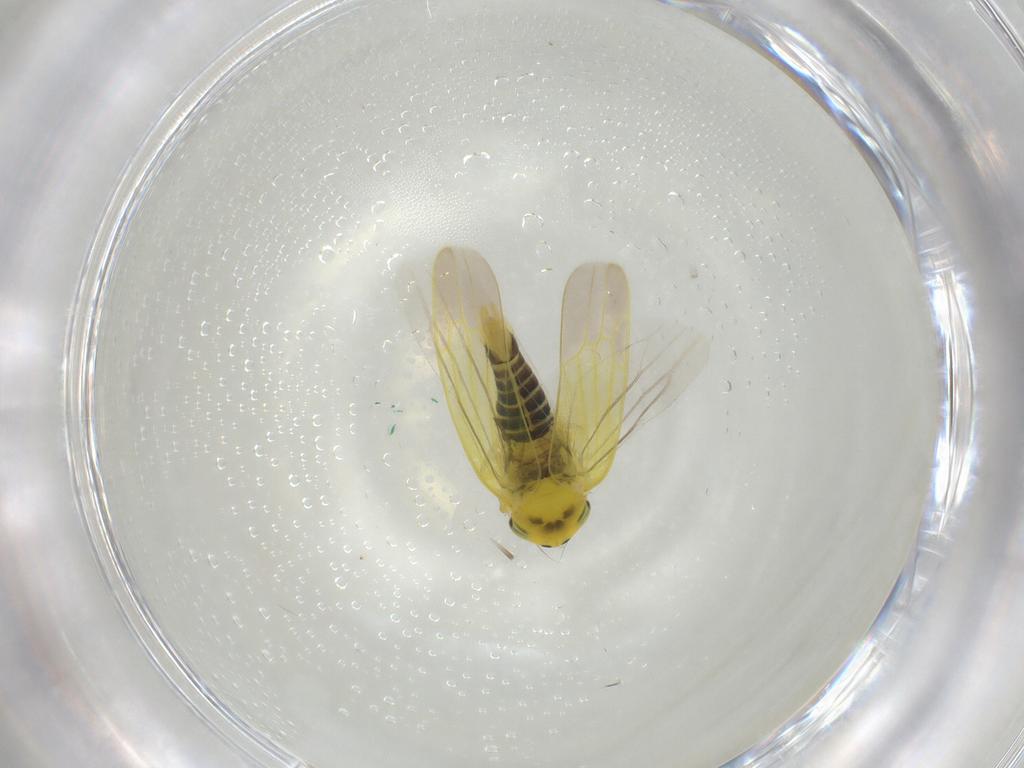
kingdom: Animalia
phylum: Arthropoda
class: Insecta
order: Hemiptera
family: Cicadellidae
